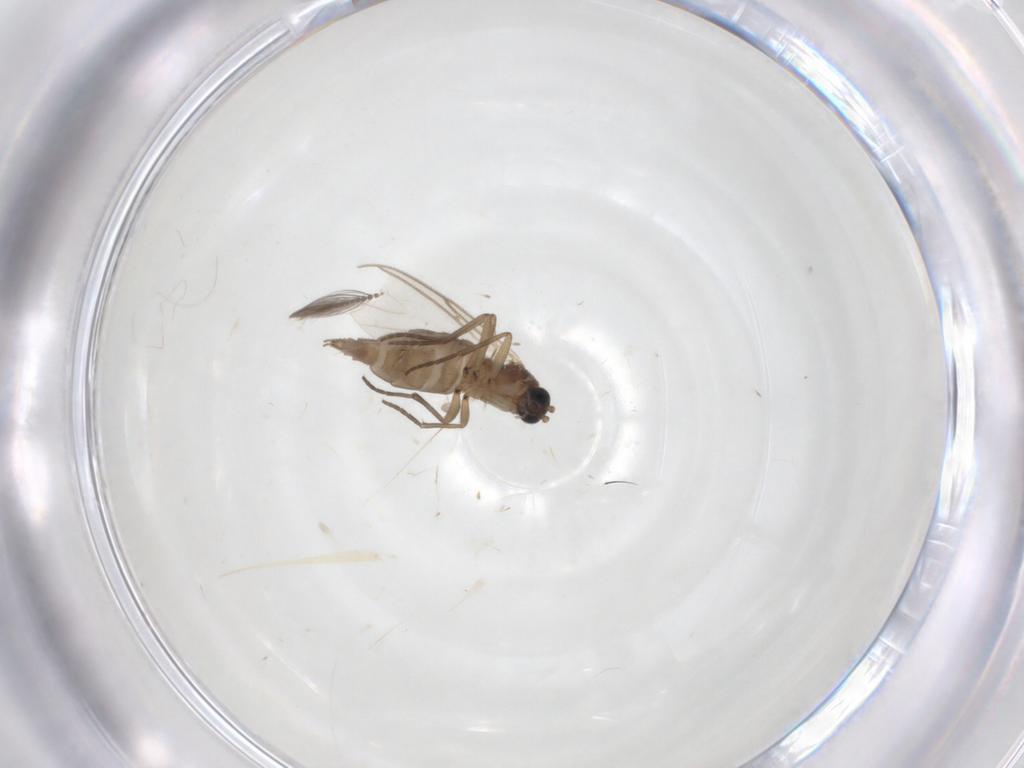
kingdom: Animalia
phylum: Arthropoda
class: Insecta
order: Diptera
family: Sciaridae
